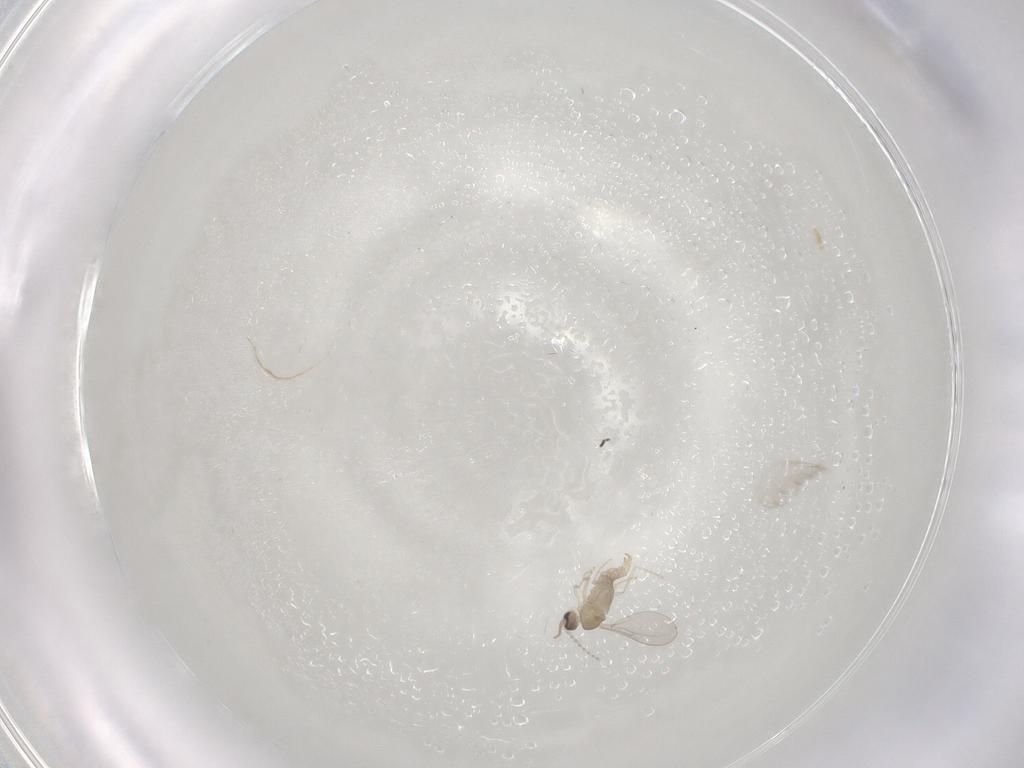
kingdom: Animalia
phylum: Arthropoda
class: Insecta
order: Diptera
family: Cecidomyiidae
